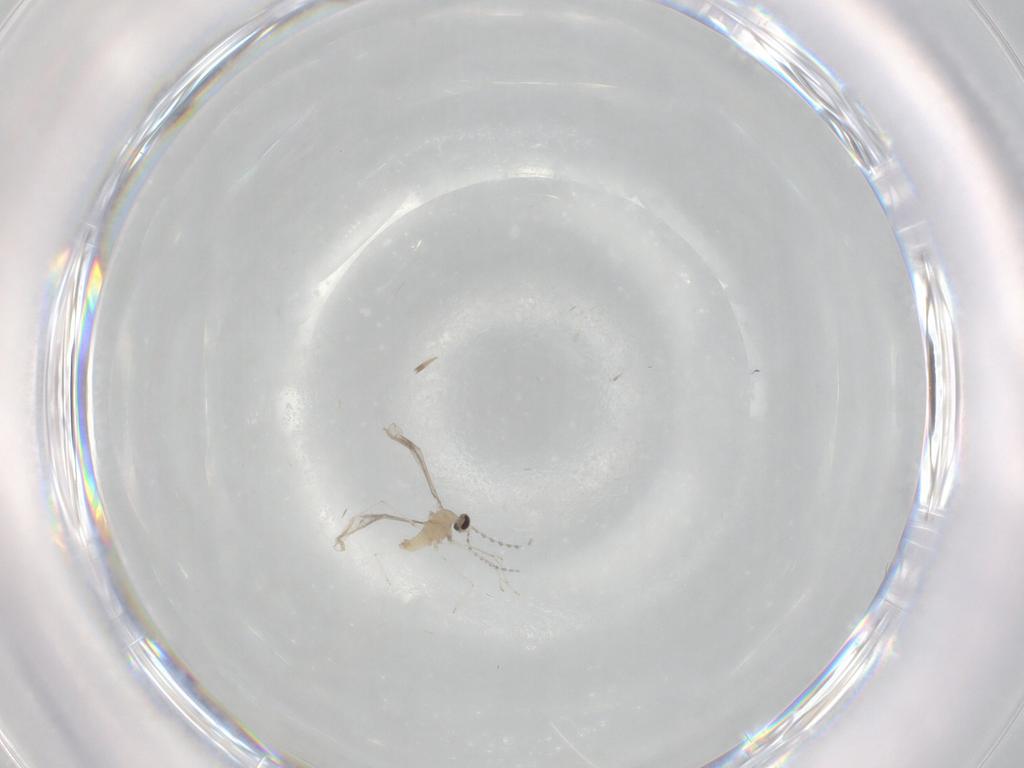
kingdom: Animalia
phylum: Arthropoda
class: Insecta
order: Diptera
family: Cecidomyiidae
